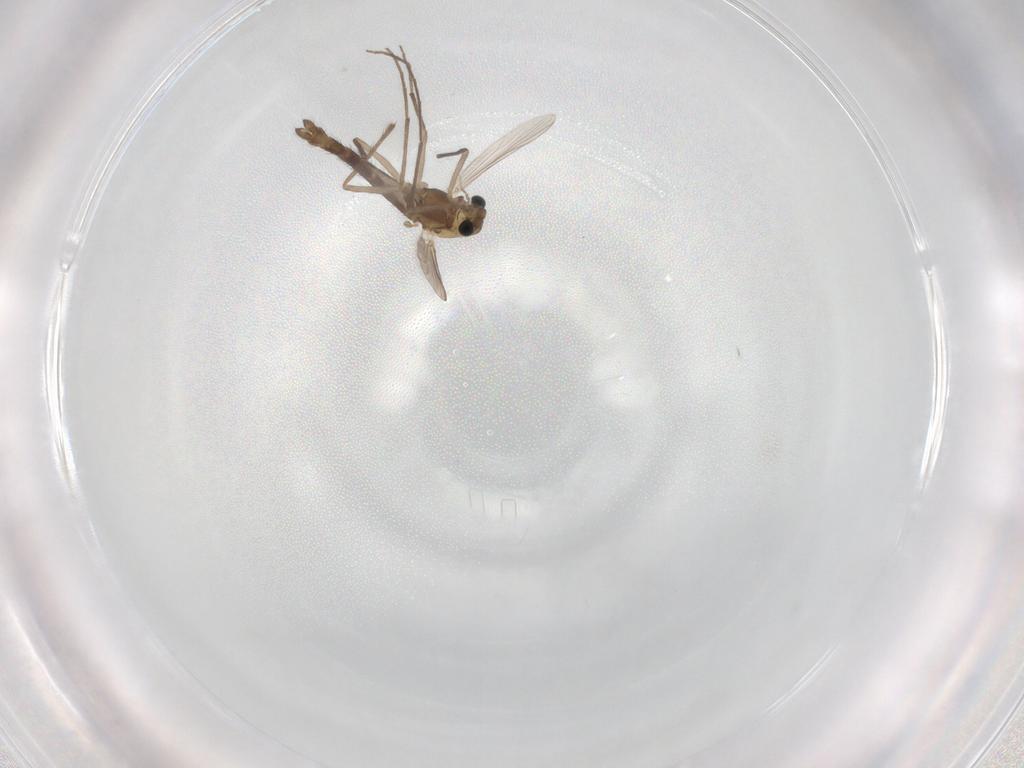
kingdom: Animalia
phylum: Arthropoda
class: Insecta
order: Diptera
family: Chironomidae
